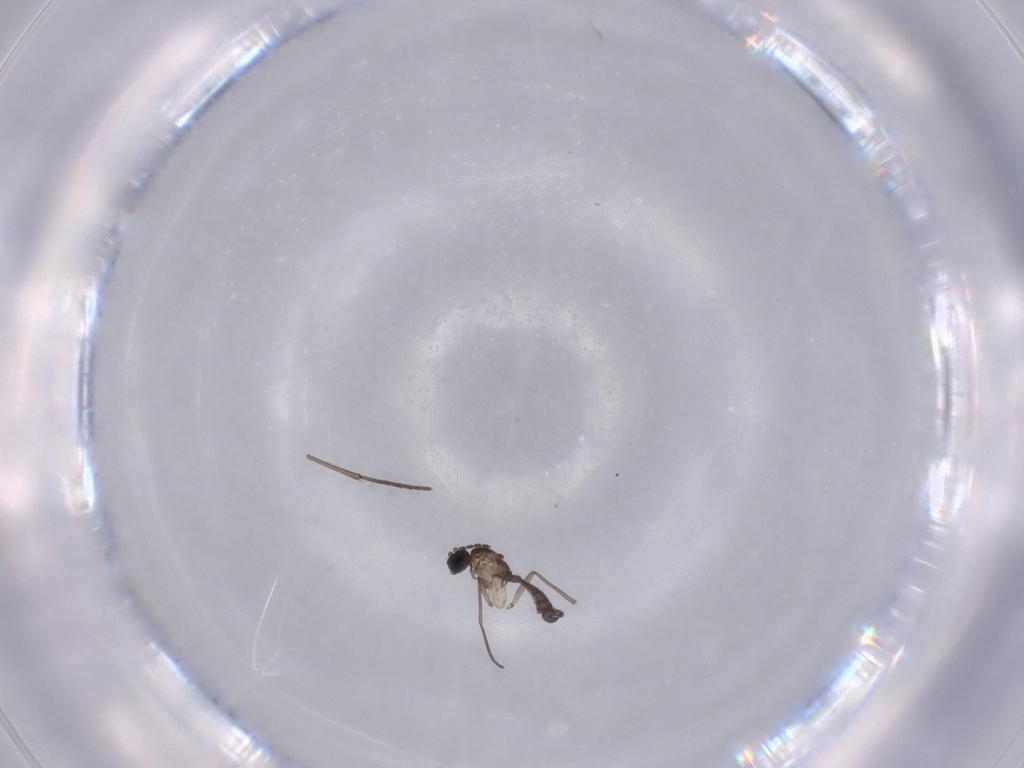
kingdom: Animalia
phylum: Arthropoda
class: Insecta
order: Diptera
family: Sciaridae
